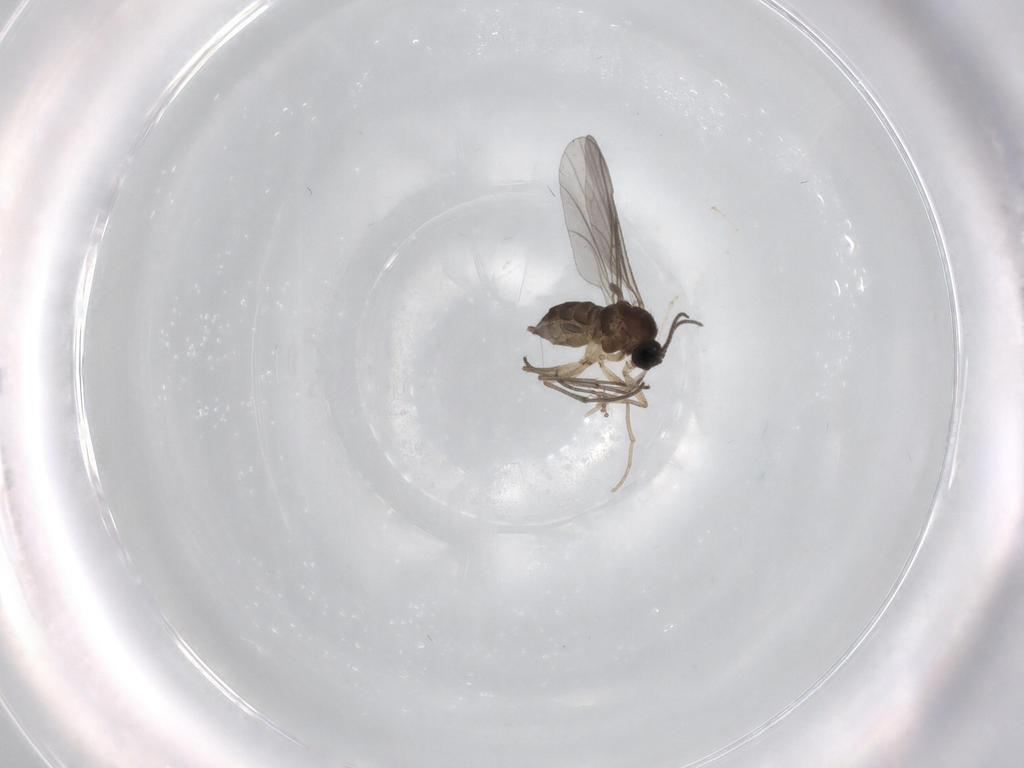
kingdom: Animalia
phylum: Arthropoda
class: Insecta
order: Diptera
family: Sciaridae
